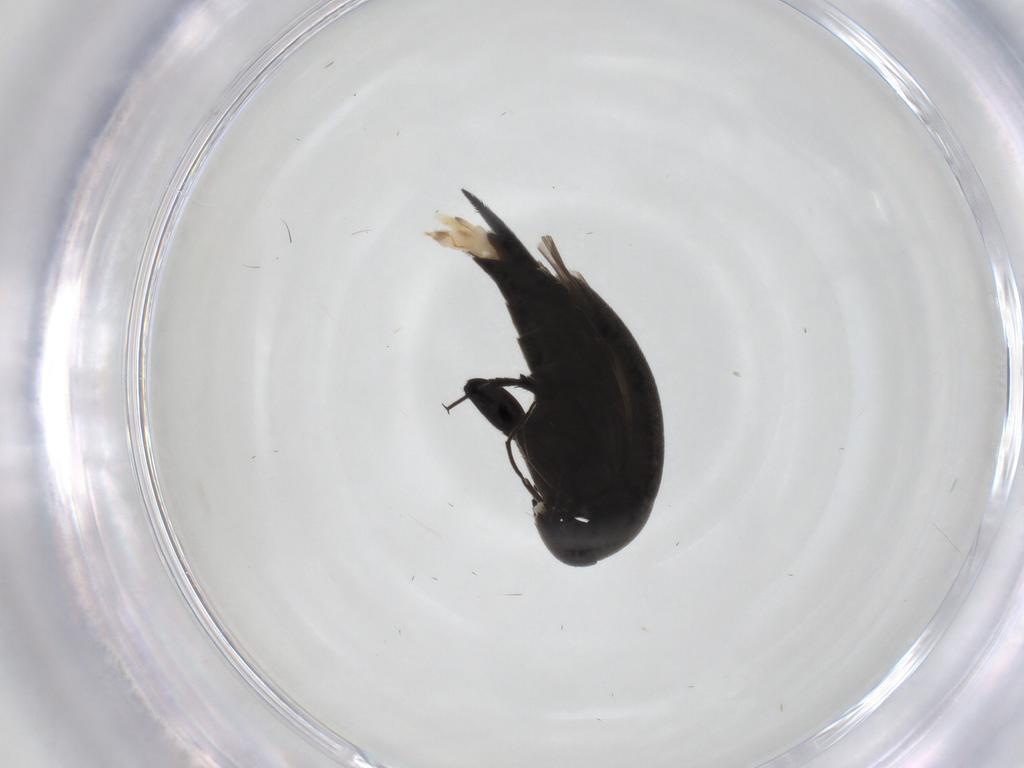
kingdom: Animalia
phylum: Arthropoda
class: Insecta
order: Coleoptera
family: Mordellidae
